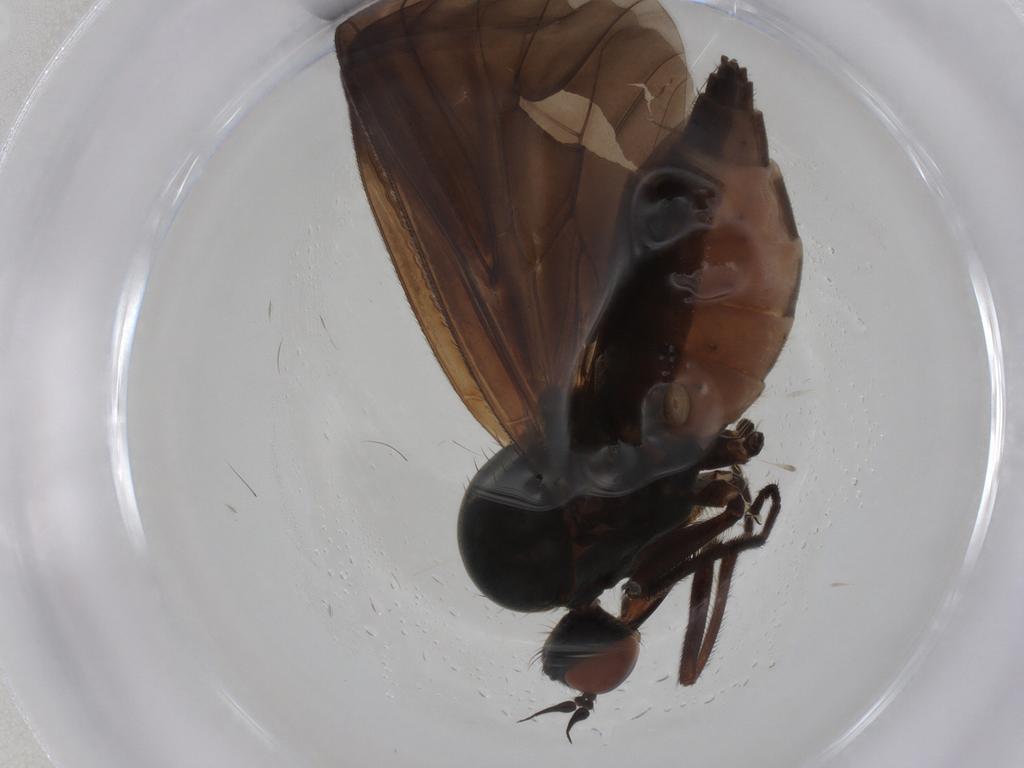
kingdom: Animalia
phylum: Arthropoda
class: Insecta
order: Diptera
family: Empididae
